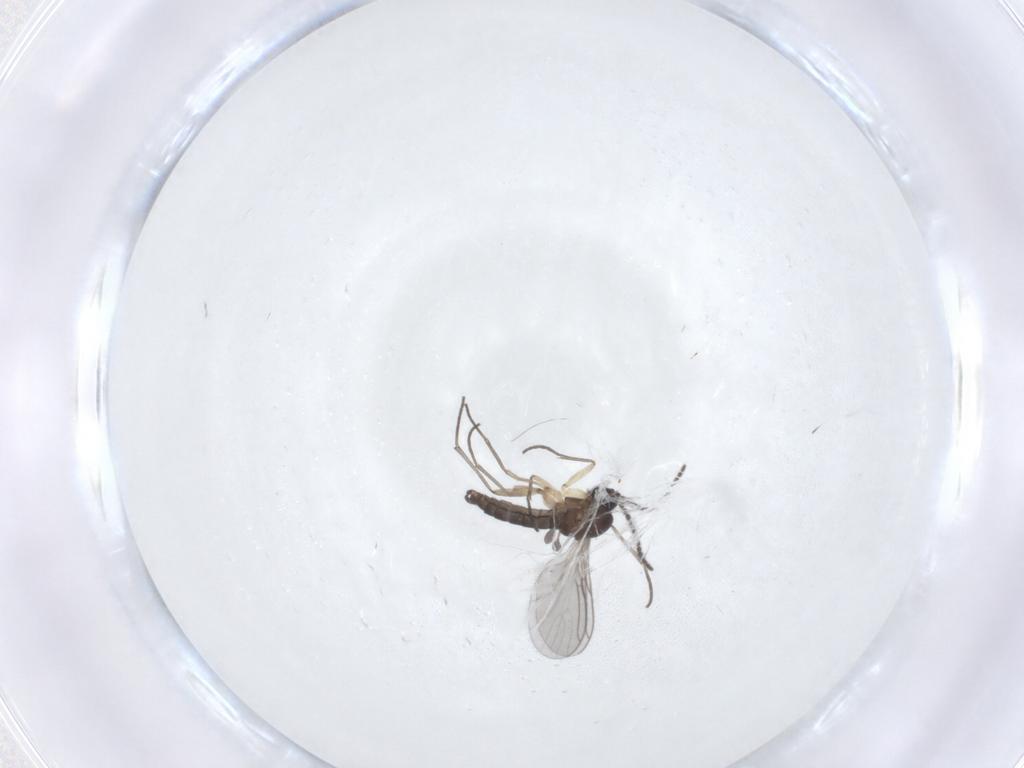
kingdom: Animalia
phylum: Arthropoda
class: Insecta
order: Diptera
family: Sciaridae
